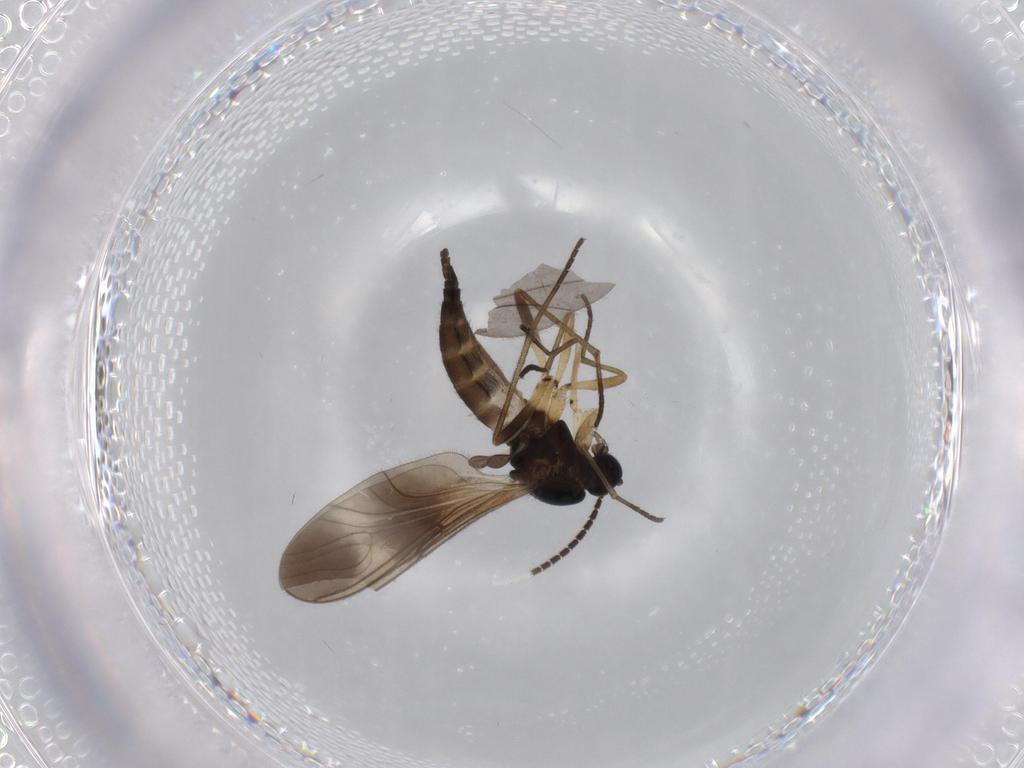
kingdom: Animalia
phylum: Arthropoda
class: Insecta
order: Diptera
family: Sciaridae
